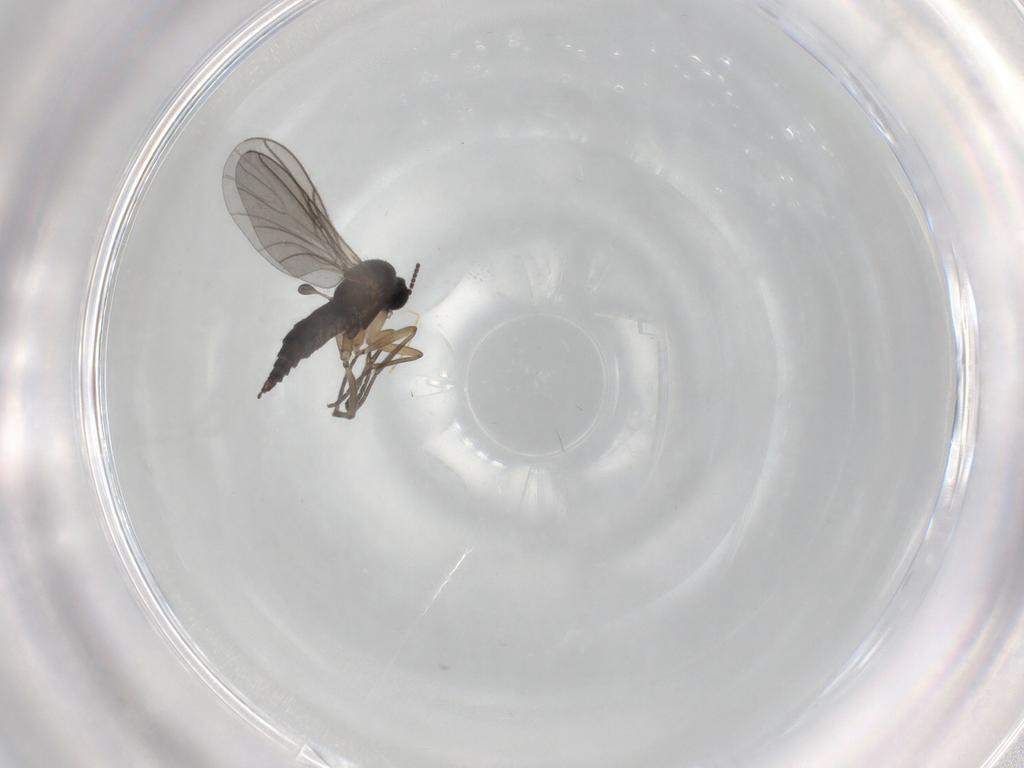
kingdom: Animalia
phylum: Arthropoda
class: Insecta
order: Diptera
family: Sciaridae
